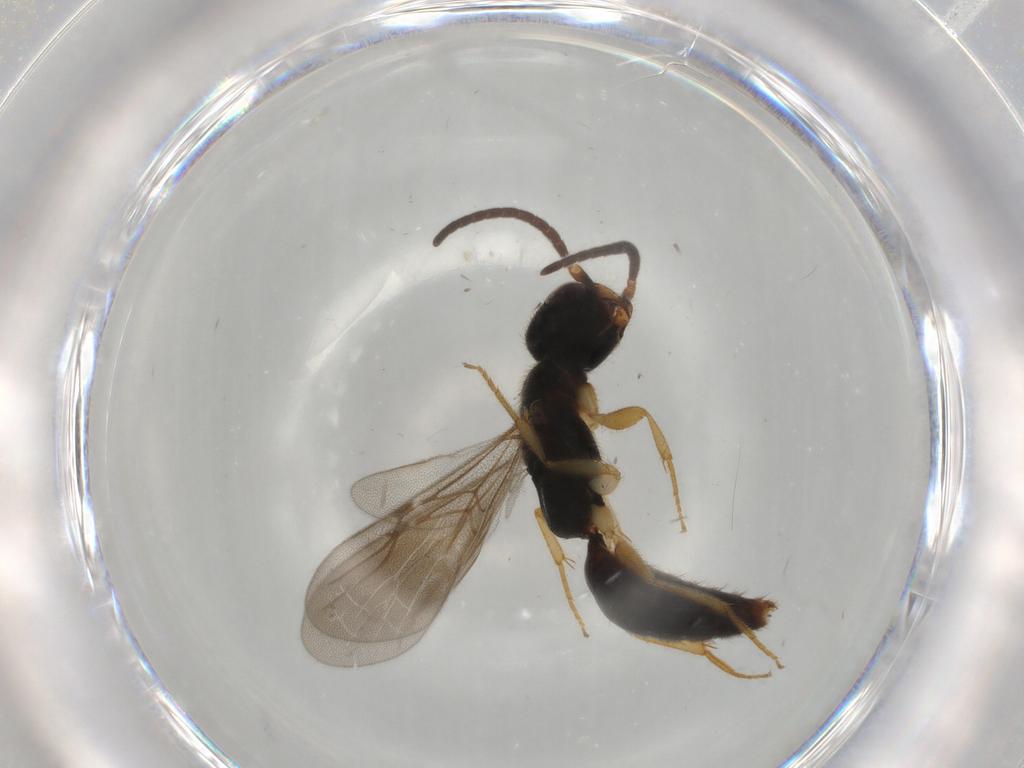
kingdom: Animalia
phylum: Arthropoda
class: Insecta
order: Hymenoptera
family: Bethylidae
